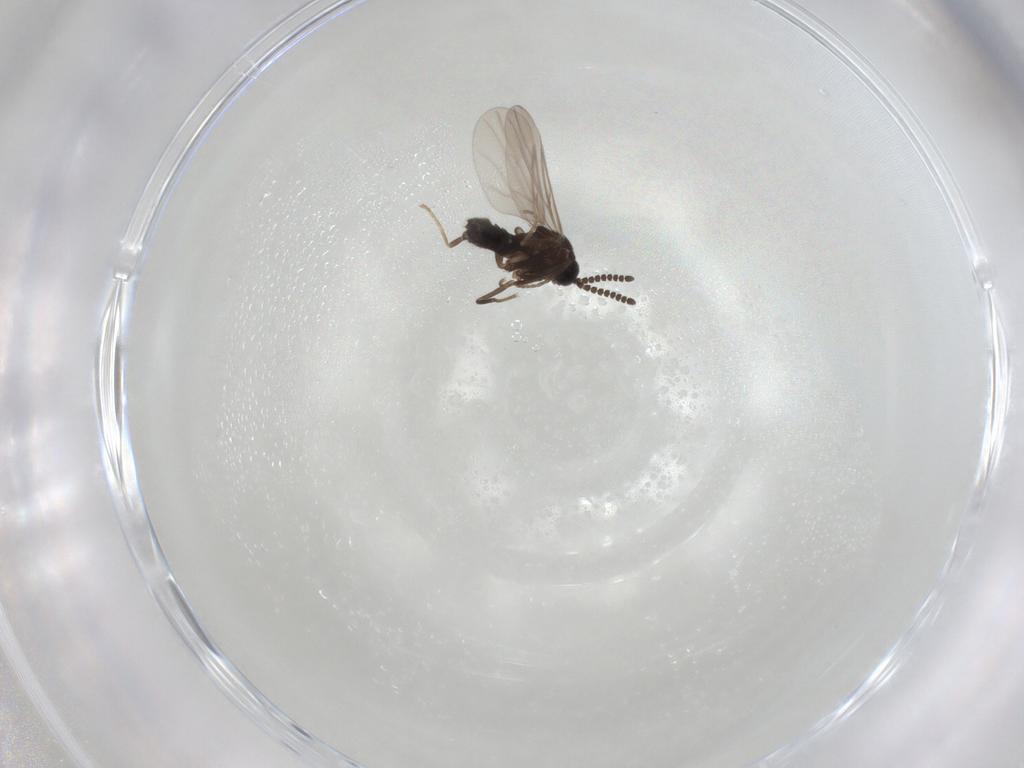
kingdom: Animalia
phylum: Arthropoda
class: Insecta
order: Diptera
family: Scatopsidae
